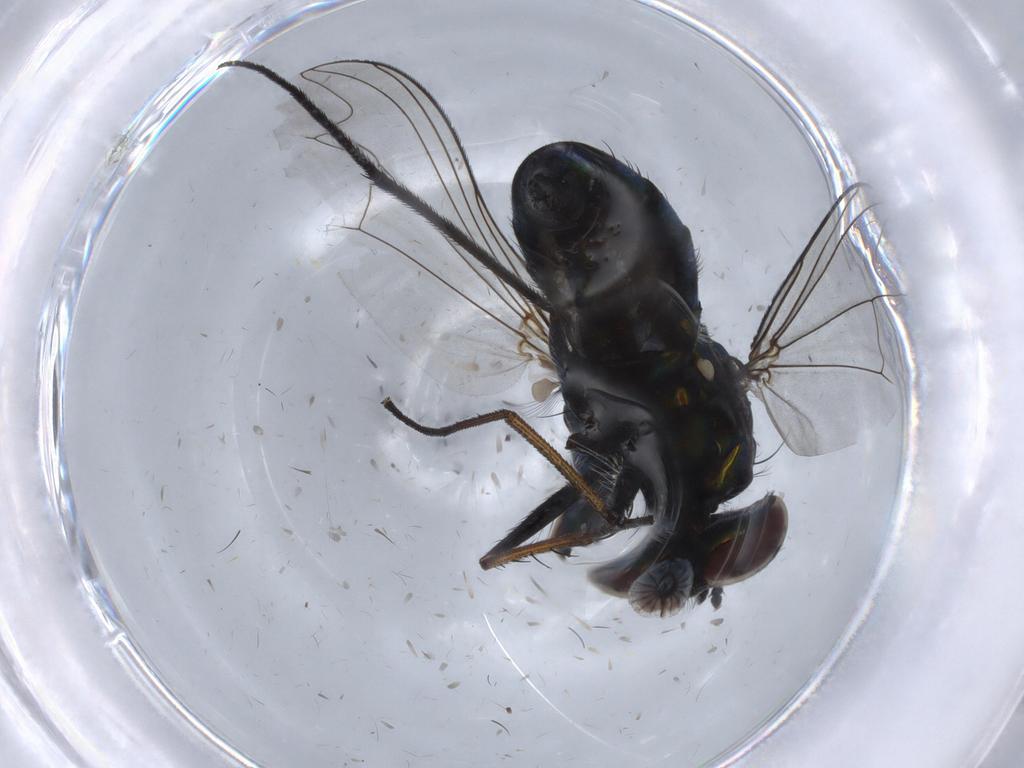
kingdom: Animalia
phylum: Arthropoda
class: Insecta
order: Diptera
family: Dolichopodidae
